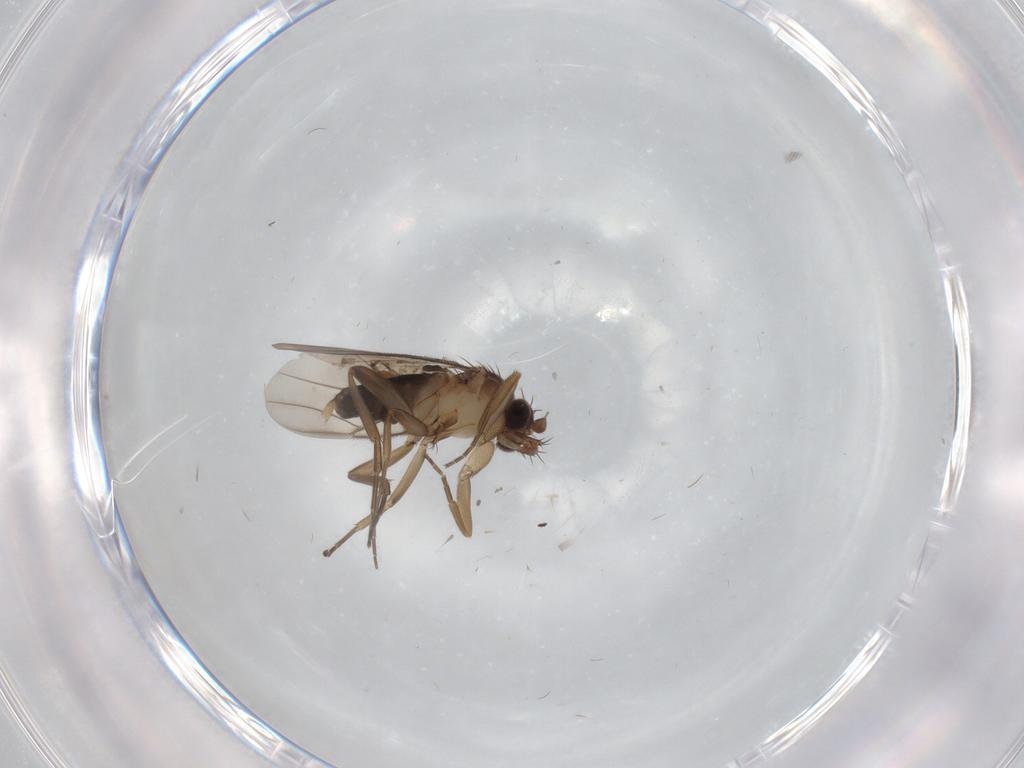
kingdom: Animalia
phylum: Arthropoda
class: Insecta
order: Diptera
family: Phoridae
